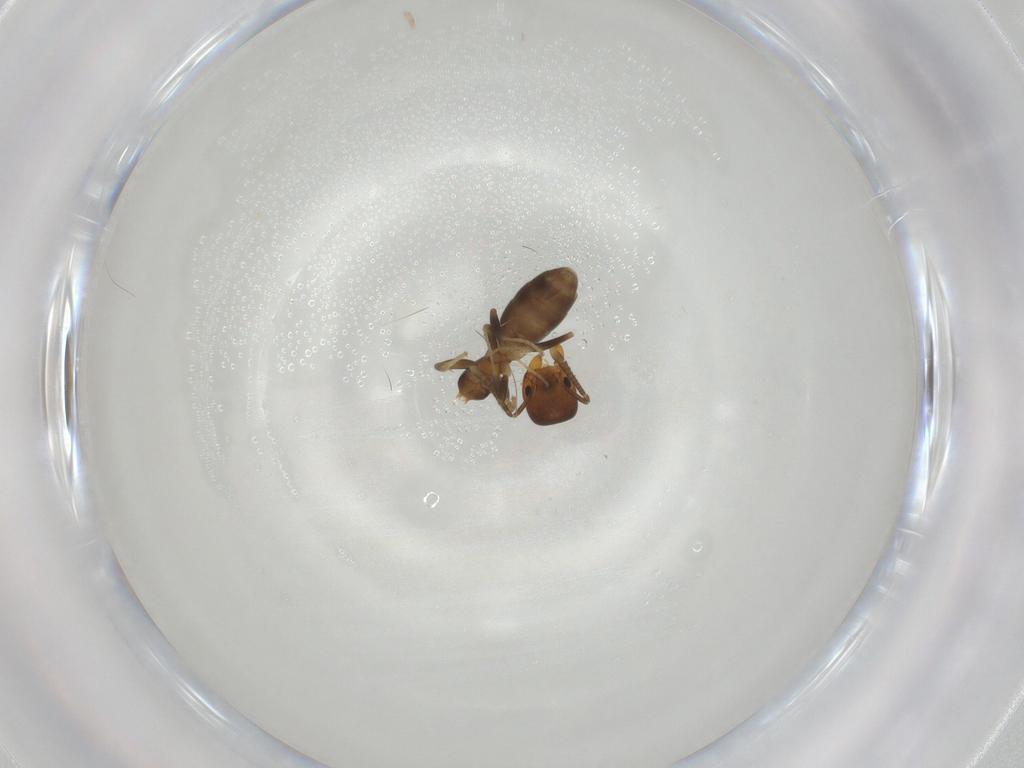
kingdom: Animalia
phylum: Arthropoda
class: Insecta
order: Hymenoptera
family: Formicidae
